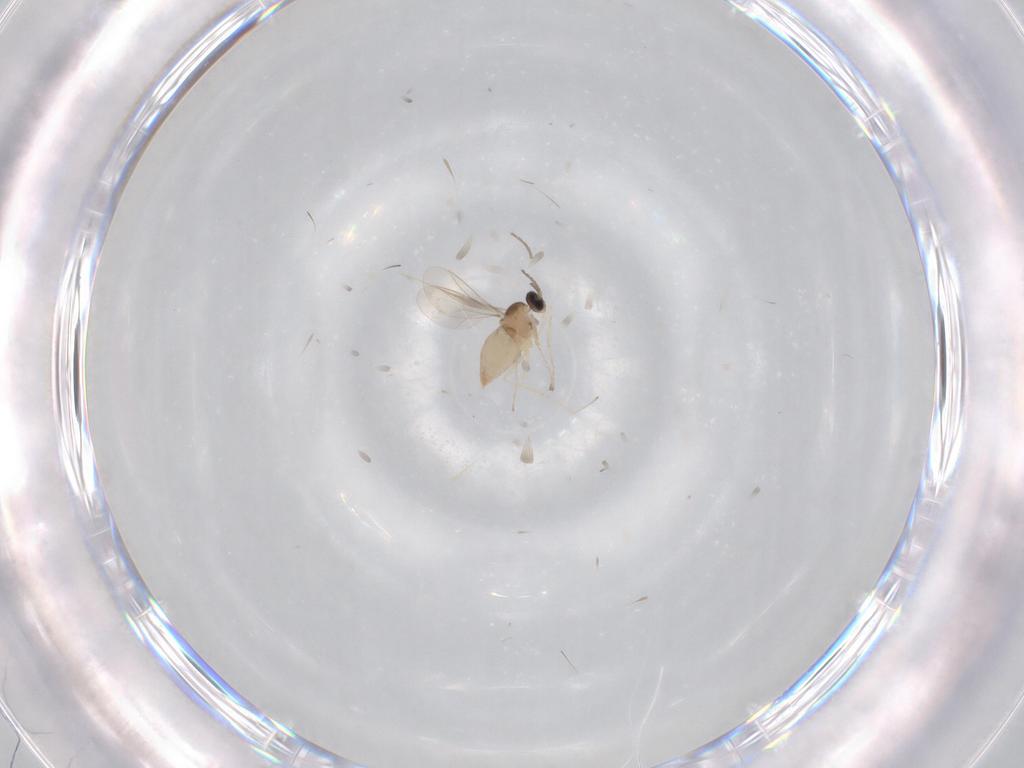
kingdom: Animalia
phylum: Arthropoda
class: Insecta
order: Diptera
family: Cecidomyiidae
